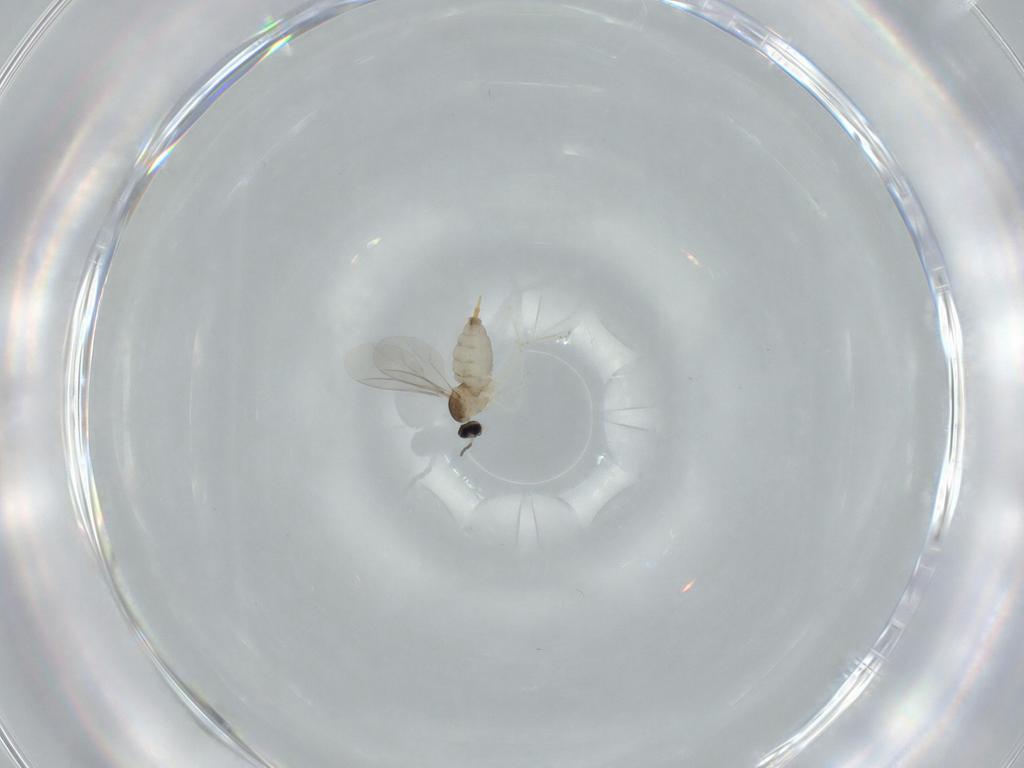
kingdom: Animalia
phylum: Arthropoda
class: Insecta
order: Diptera
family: Cecidomyiidae
